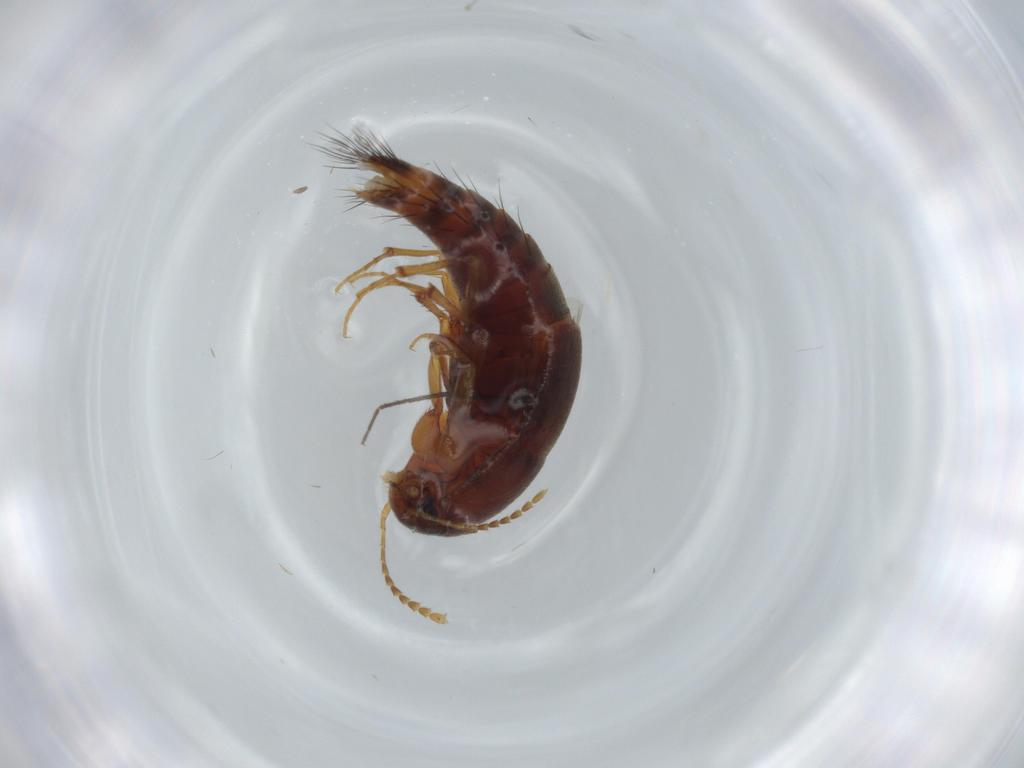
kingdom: Animalia
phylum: Arthropoda
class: Insecta
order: Coleoptera
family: Staphylinidae
